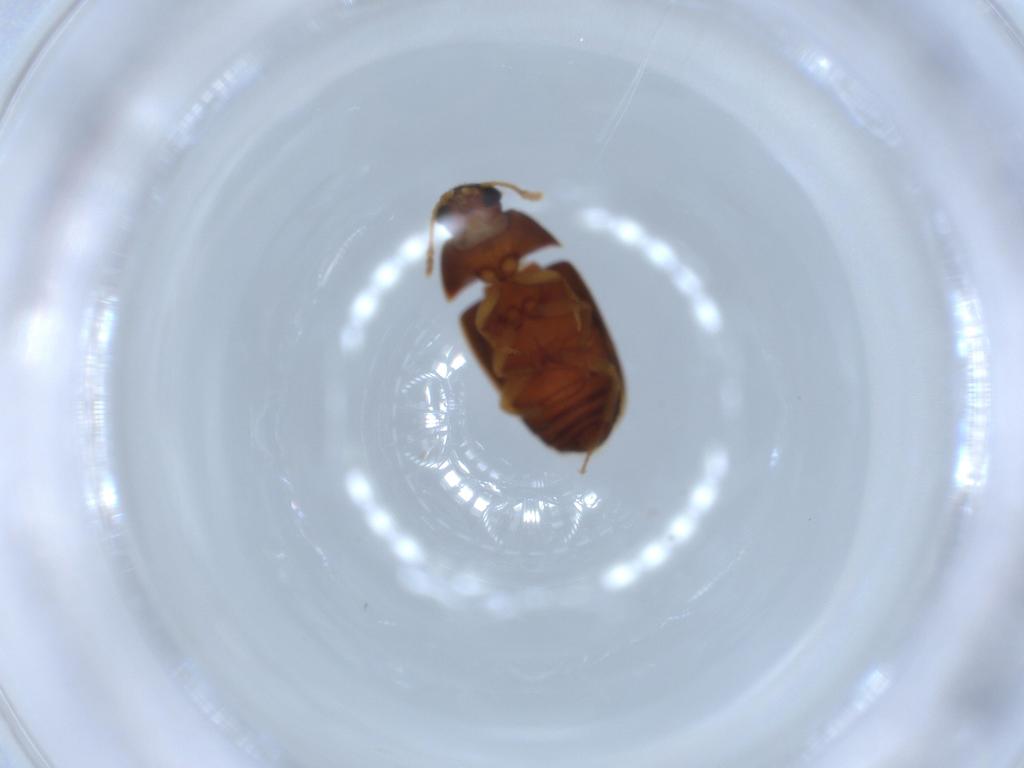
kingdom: Animalia
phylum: Arthropoda
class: Insecta
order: Coleoptera
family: Mycetophagidae
